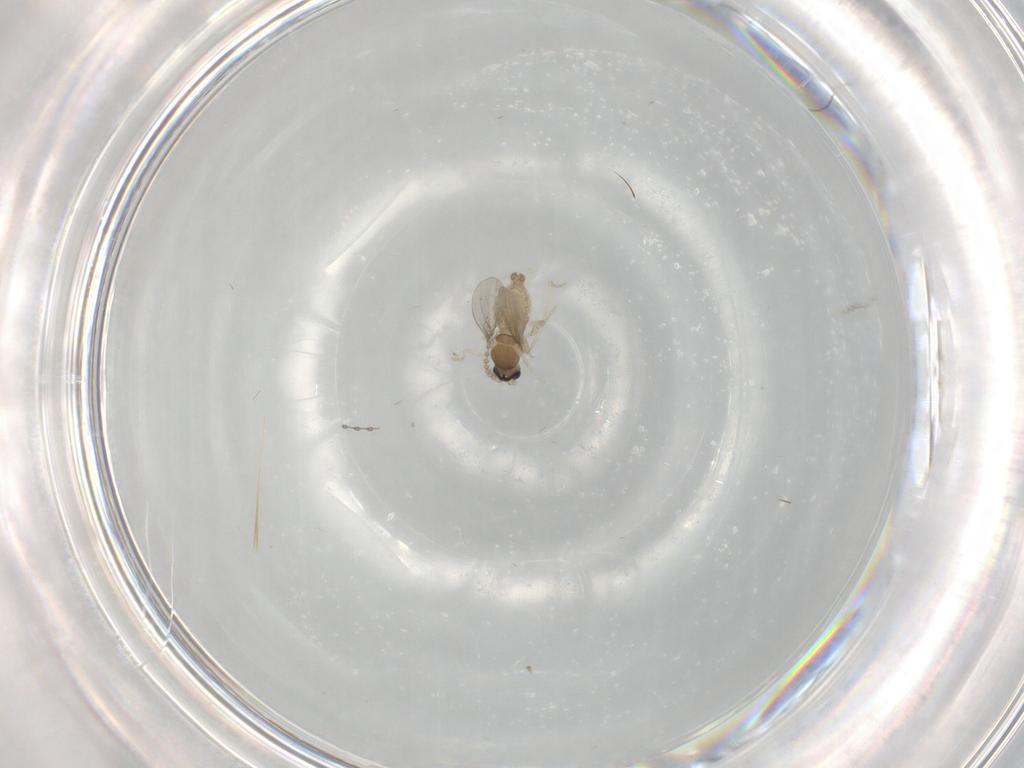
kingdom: Animalia
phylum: Arthropoda
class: Insecta
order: Diptera
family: Cecidomyiidae
